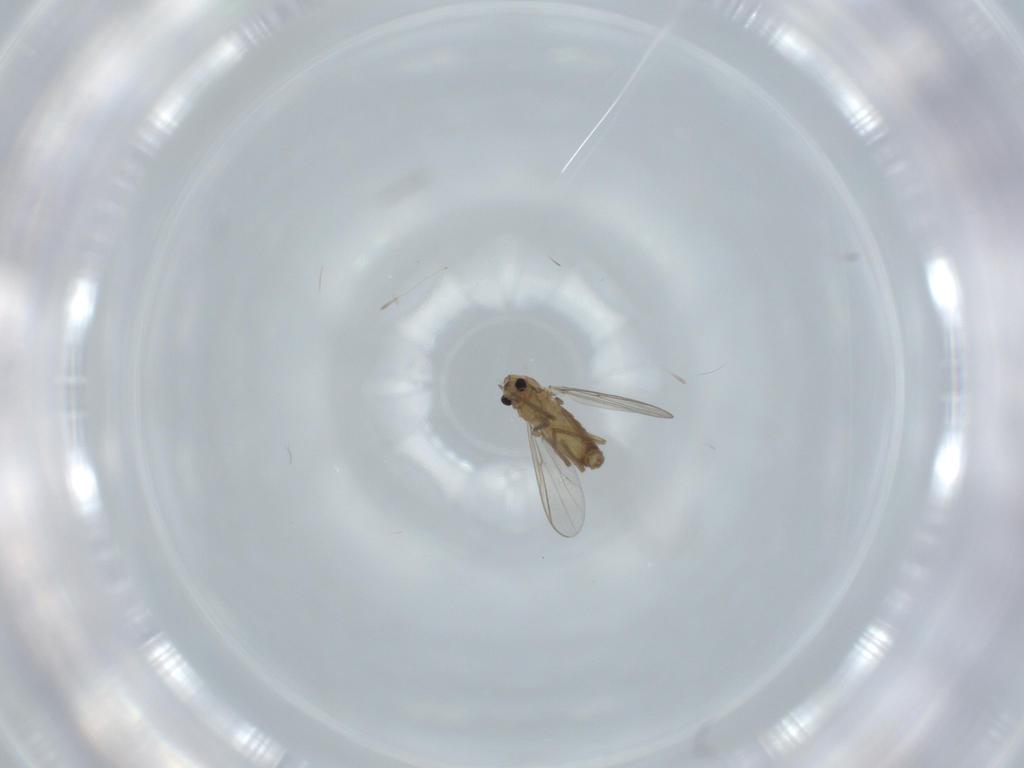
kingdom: Animalia
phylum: Arthropoda
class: Insecta
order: Diptera
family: Chironomidae
